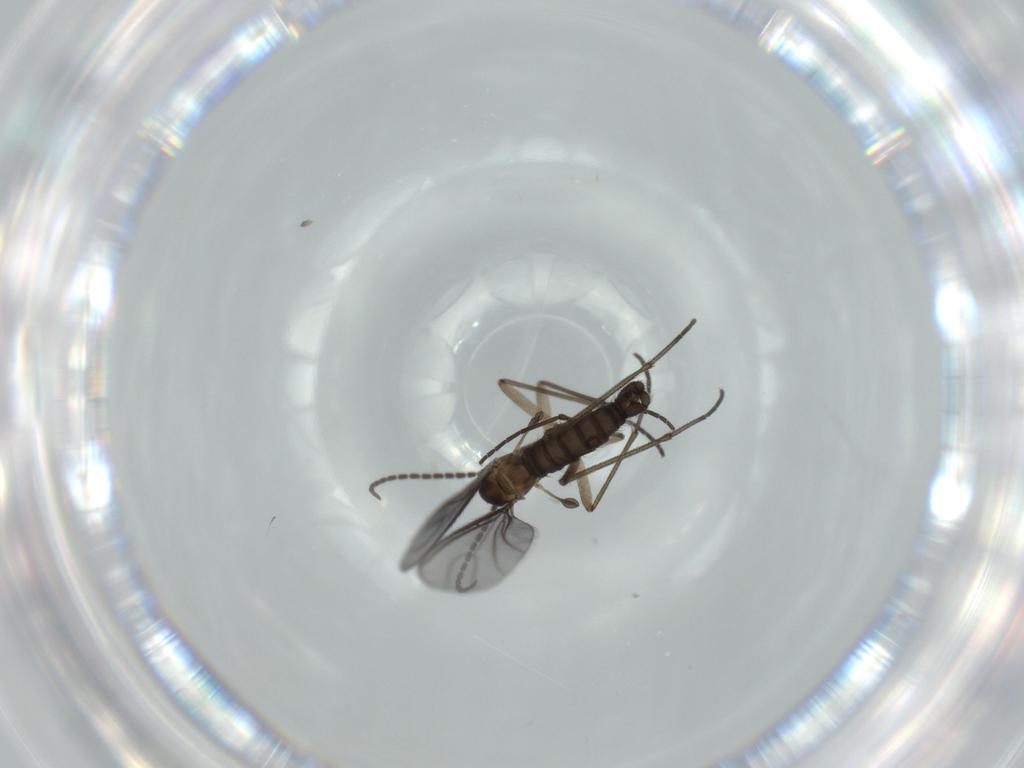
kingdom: Animalia
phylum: Arthropoda
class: Insecta
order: Diptera
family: Sciaridae
